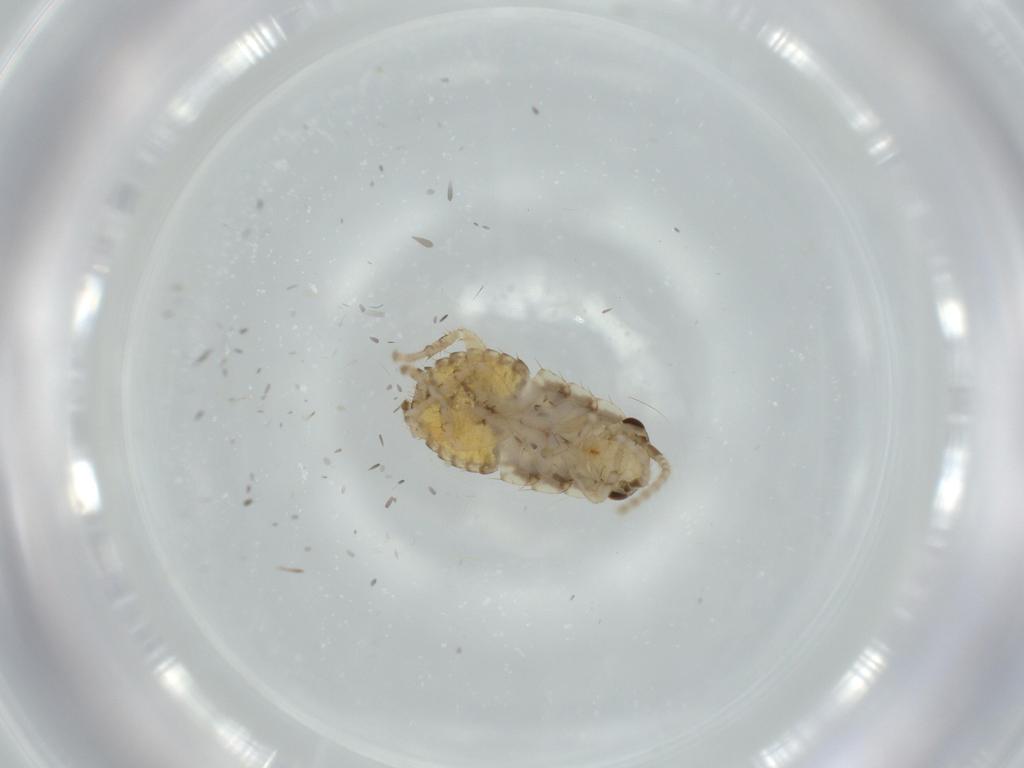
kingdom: Animalia
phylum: Arthropoda
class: Insecta
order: Blattodea
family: Ectobiidae
